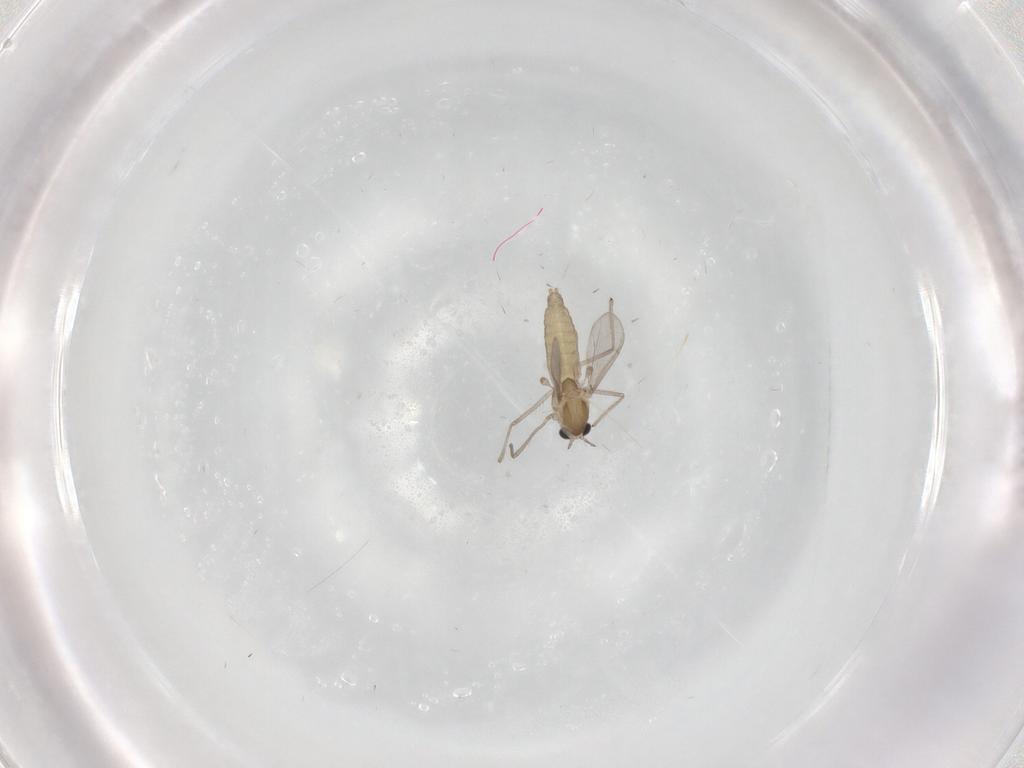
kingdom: Animalia
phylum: Arthropoda
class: Insecta
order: Diptera
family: Chironomidae
